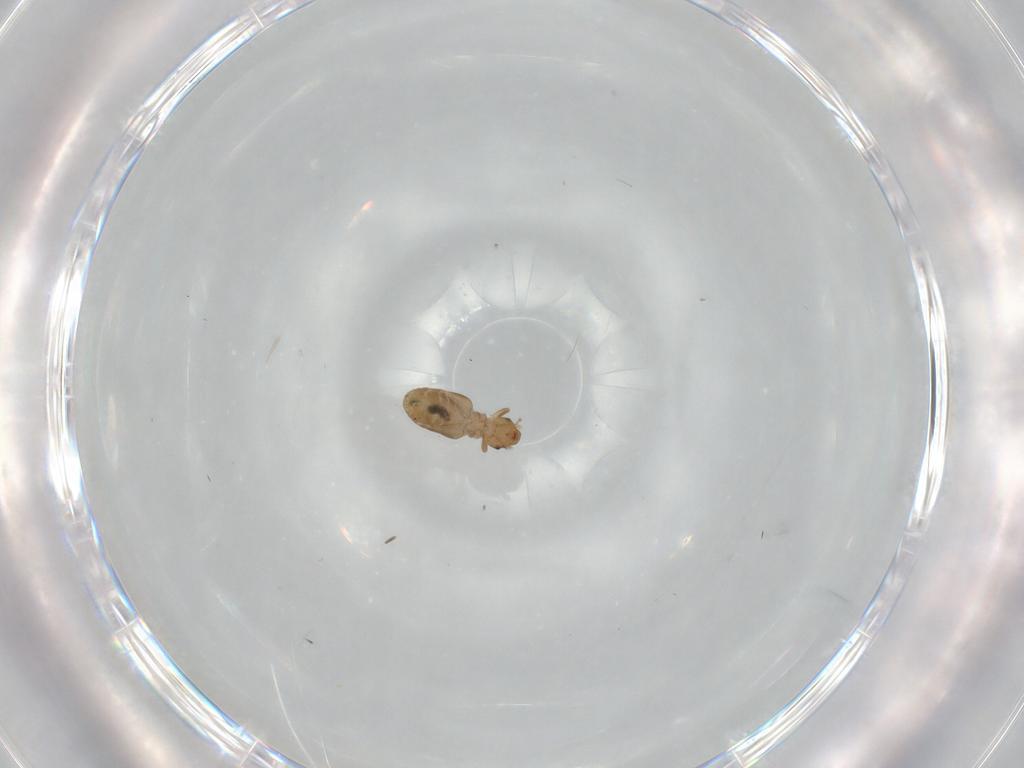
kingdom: Animalia
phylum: Arthropoda
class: Insecta
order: Psocodea
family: Liposcelididae
